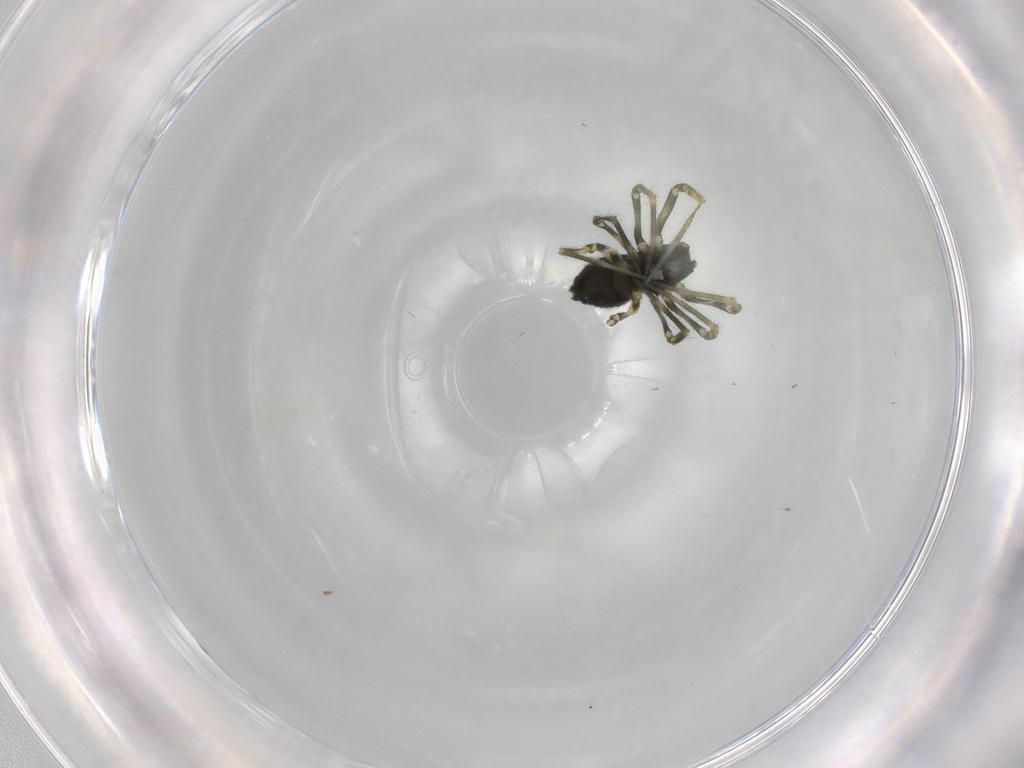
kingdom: Animalia
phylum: Arthropoda
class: Arachnida
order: Araneae
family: Linyphiidae
